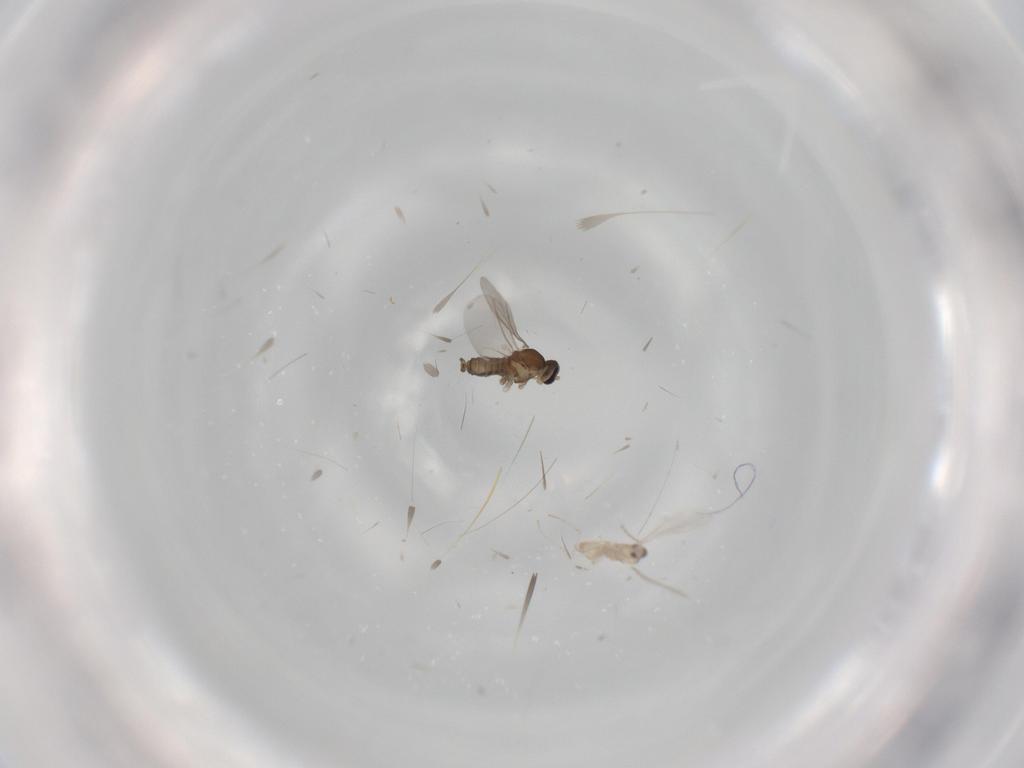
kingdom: Animalia
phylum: Arthropoda
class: Insecta
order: Diptera
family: Cecidomyiidae
